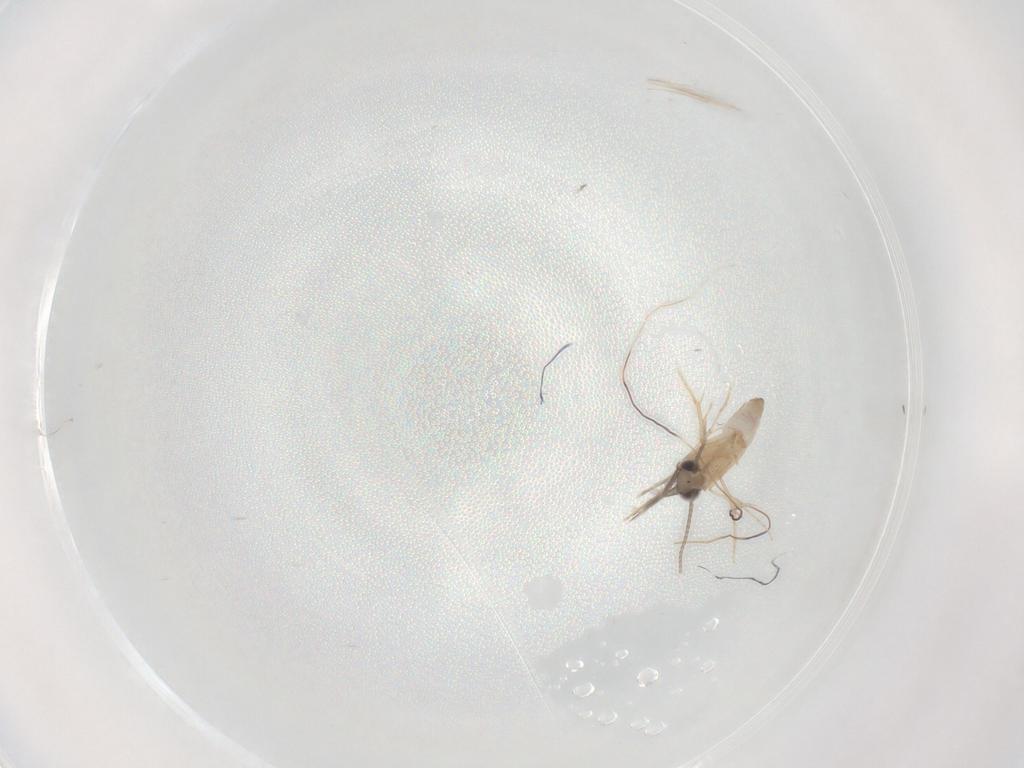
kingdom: Animalia
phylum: Arthropoda
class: Insecta
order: Trichoptera
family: Hydroptilidae
